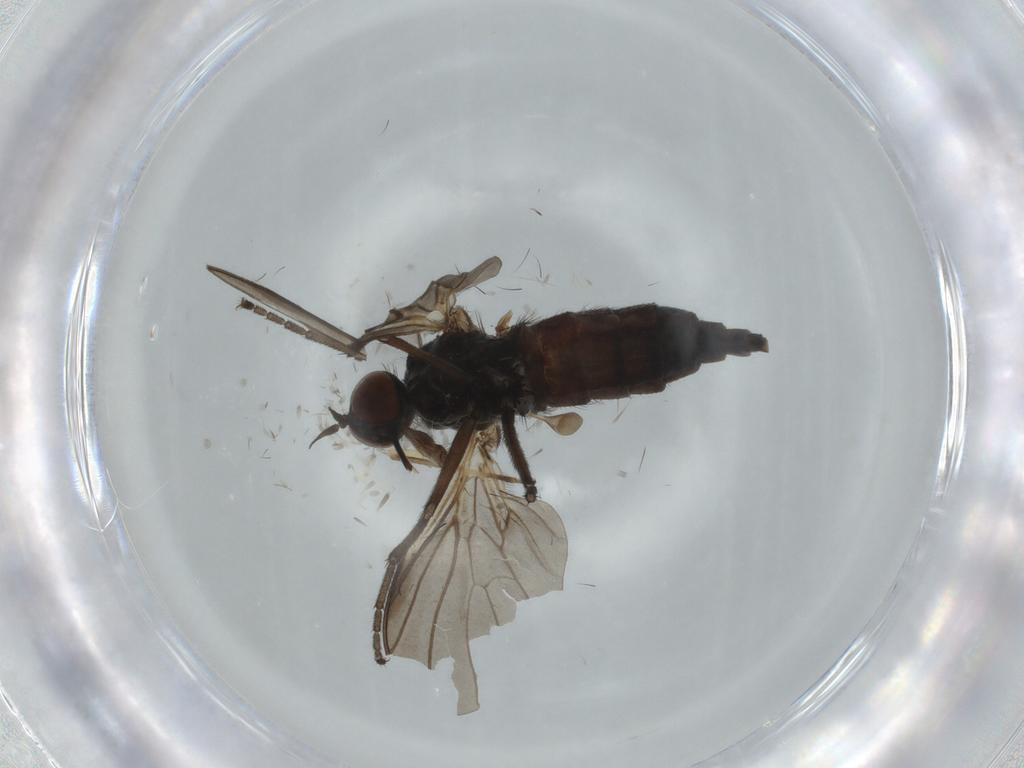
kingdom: Animalia
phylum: Arthropoda
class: Insecta
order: Diptera
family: Empididae
